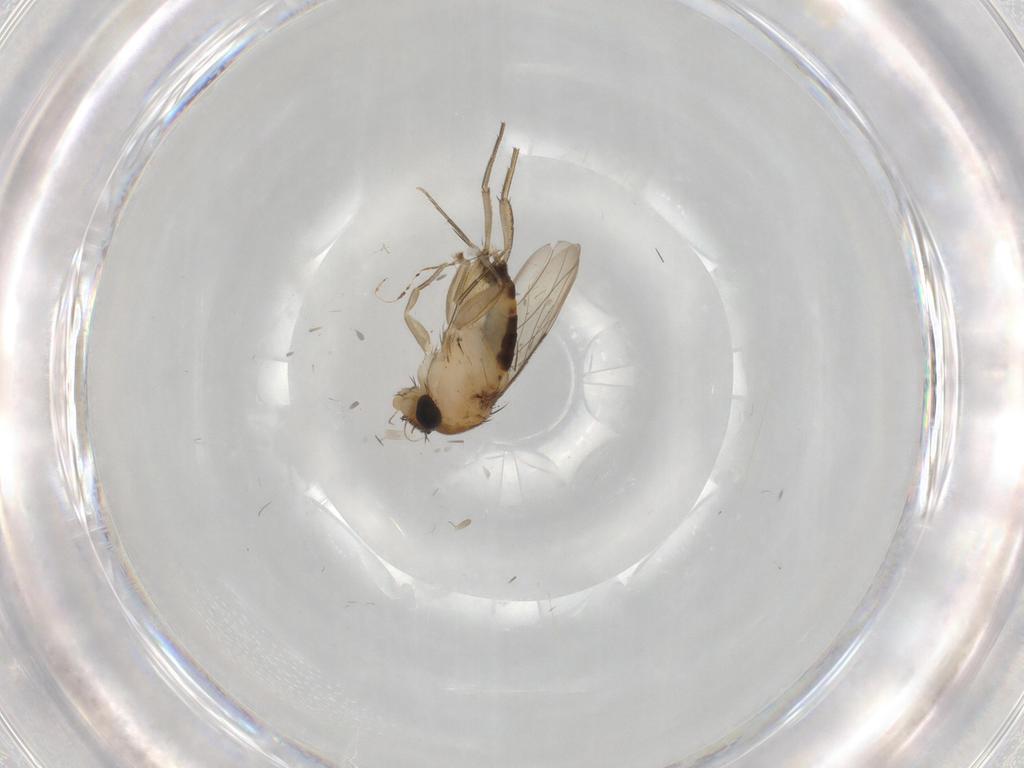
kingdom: Animalia
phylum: Arthropoda
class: Insecta
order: Diptera
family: Phoridae
